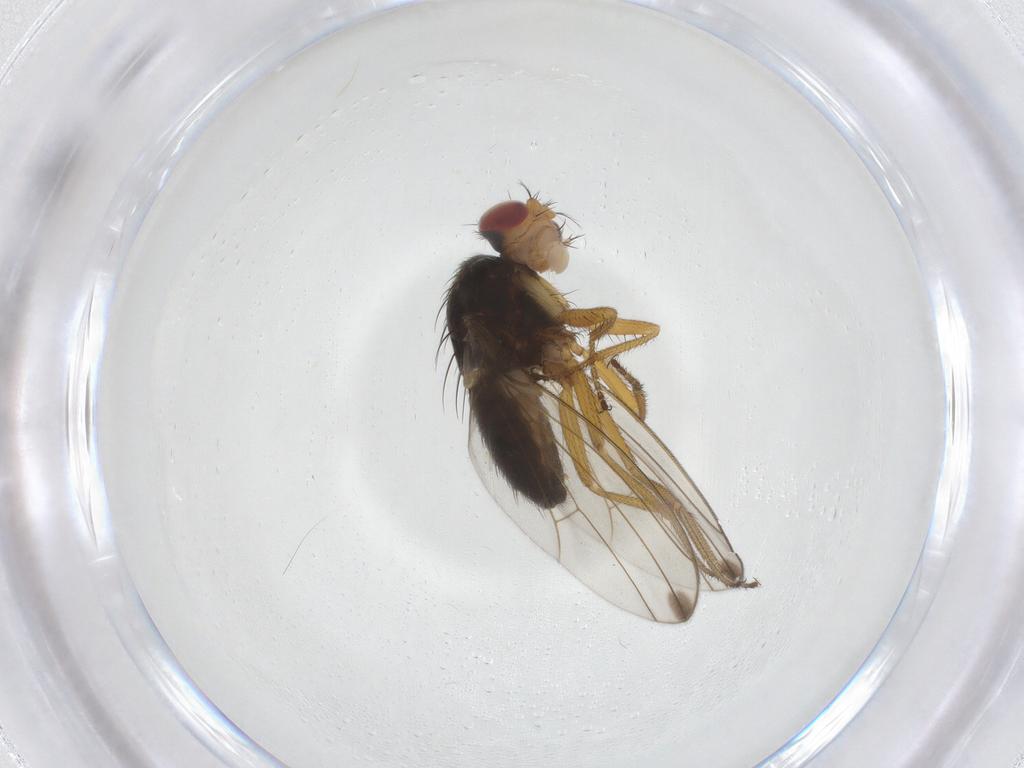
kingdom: Animalia
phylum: Arthropoda
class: Insecta
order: Diptera
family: Drosophilidae
